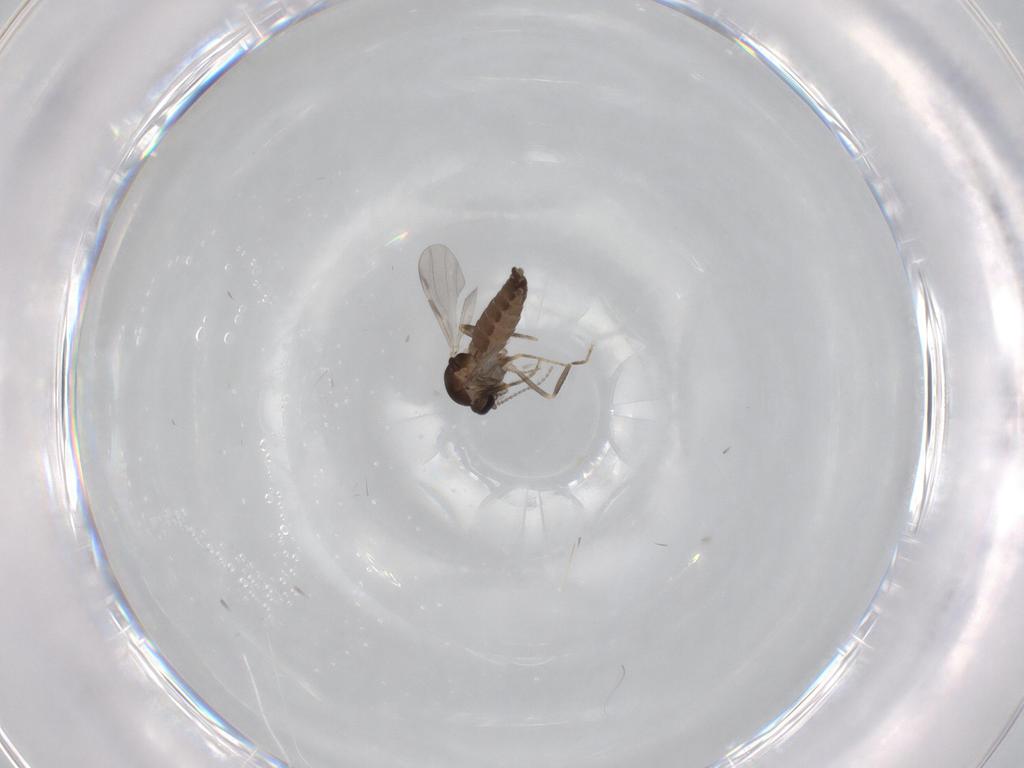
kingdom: Animalia
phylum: Arthropoda
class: Insecta
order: Diptera
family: Ceratopogonidae
